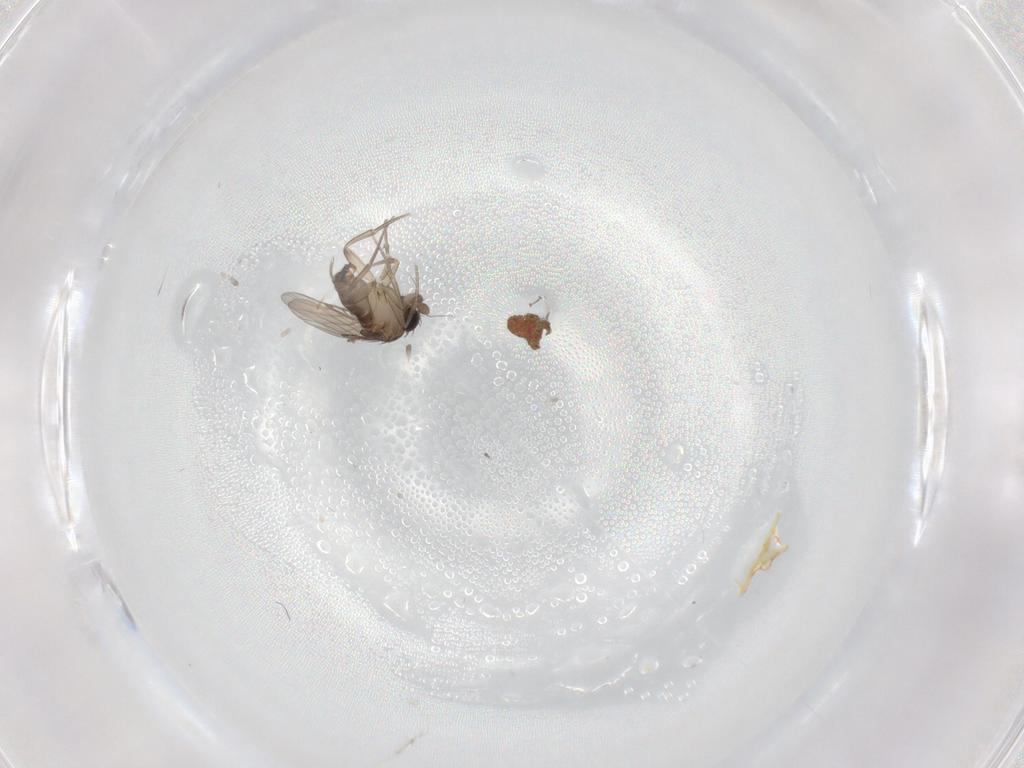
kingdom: Animalia
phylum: Arthropoda
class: Insecta
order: Diptera
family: Phoridae
